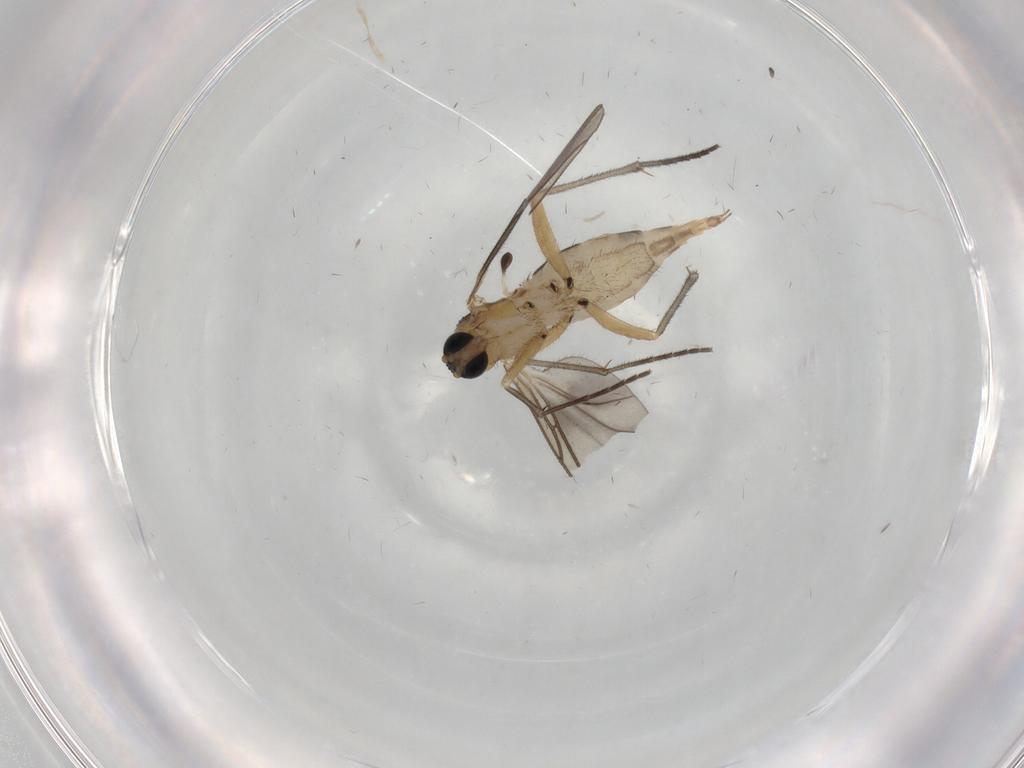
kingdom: Animalia
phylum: Arthropoda
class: Insecta
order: Diptera
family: Sciaridae
